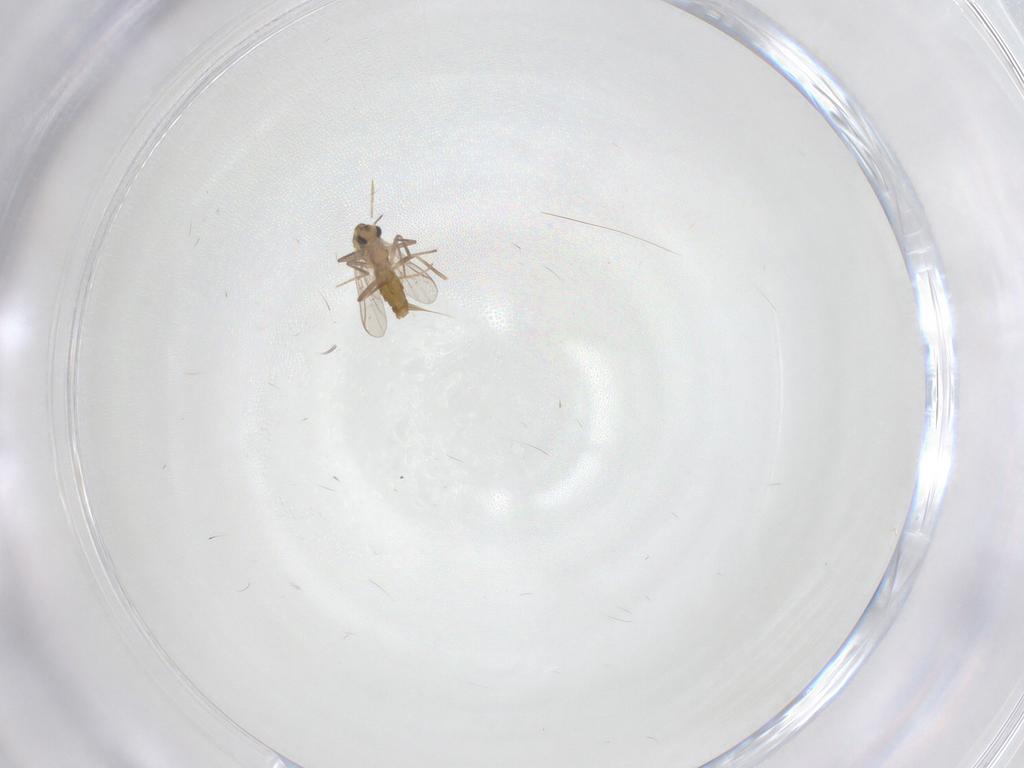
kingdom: Animalia
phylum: Arthropoda
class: Insecta
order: Diptera
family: Chironomidae
